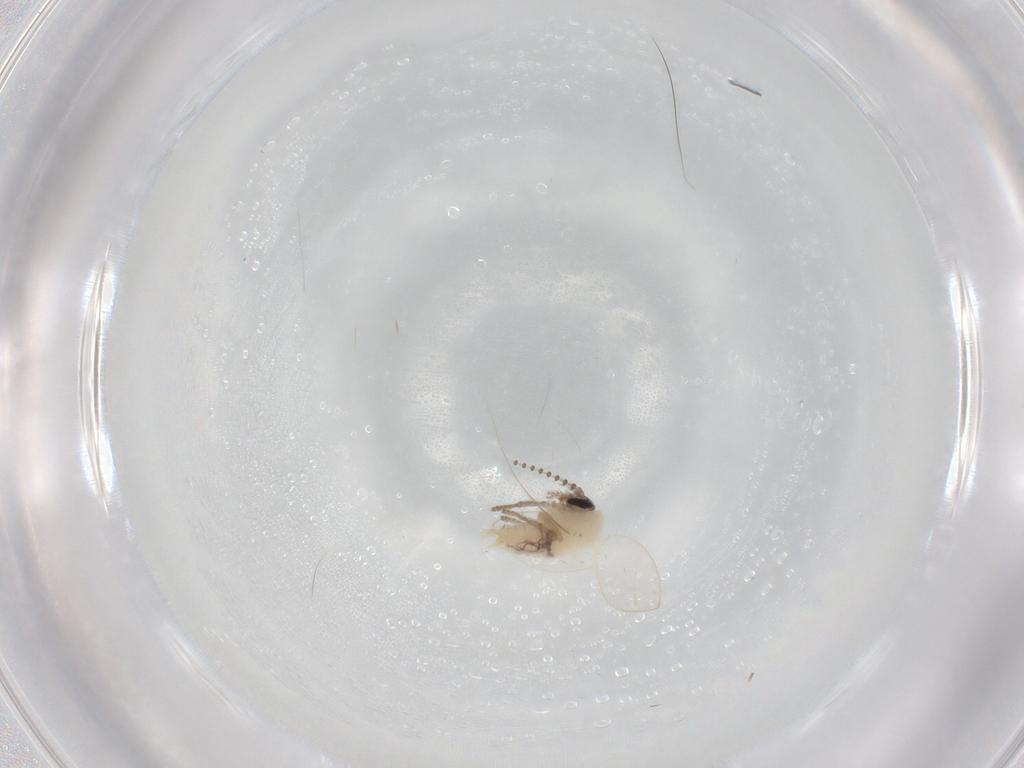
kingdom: Animalia
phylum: Arthropoda
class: Insecta
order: Diptera
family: Psychodidae
